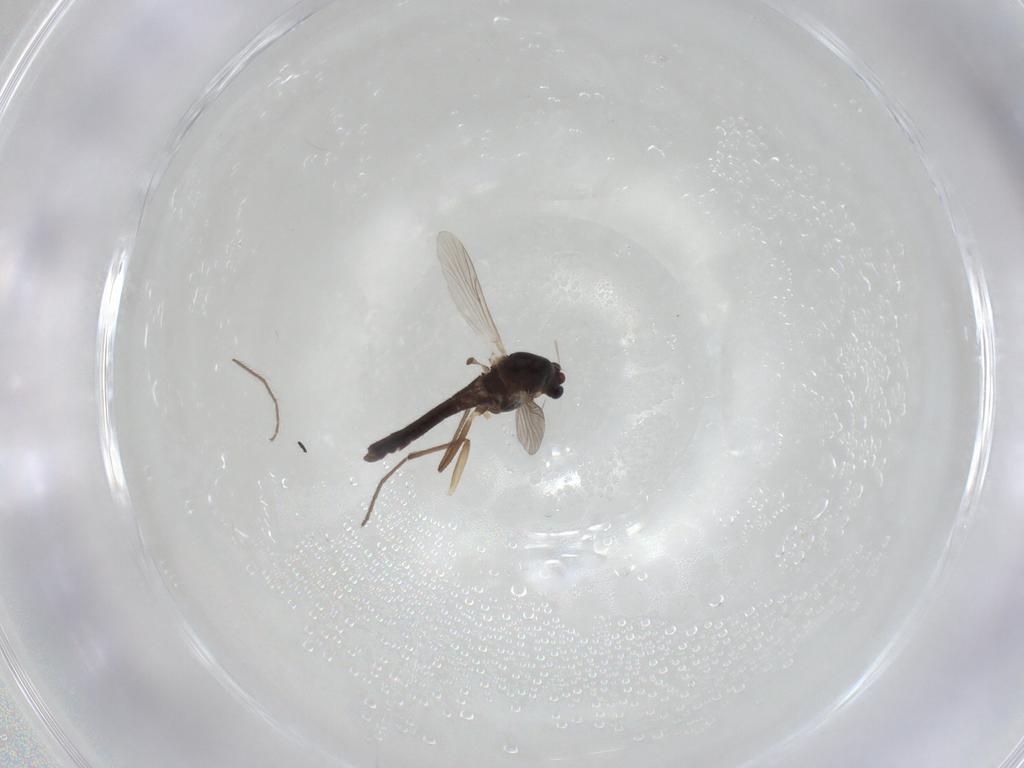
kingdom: Animalia
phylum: Arthropoda
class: Insecta
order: Diptera
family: Chironomidae
